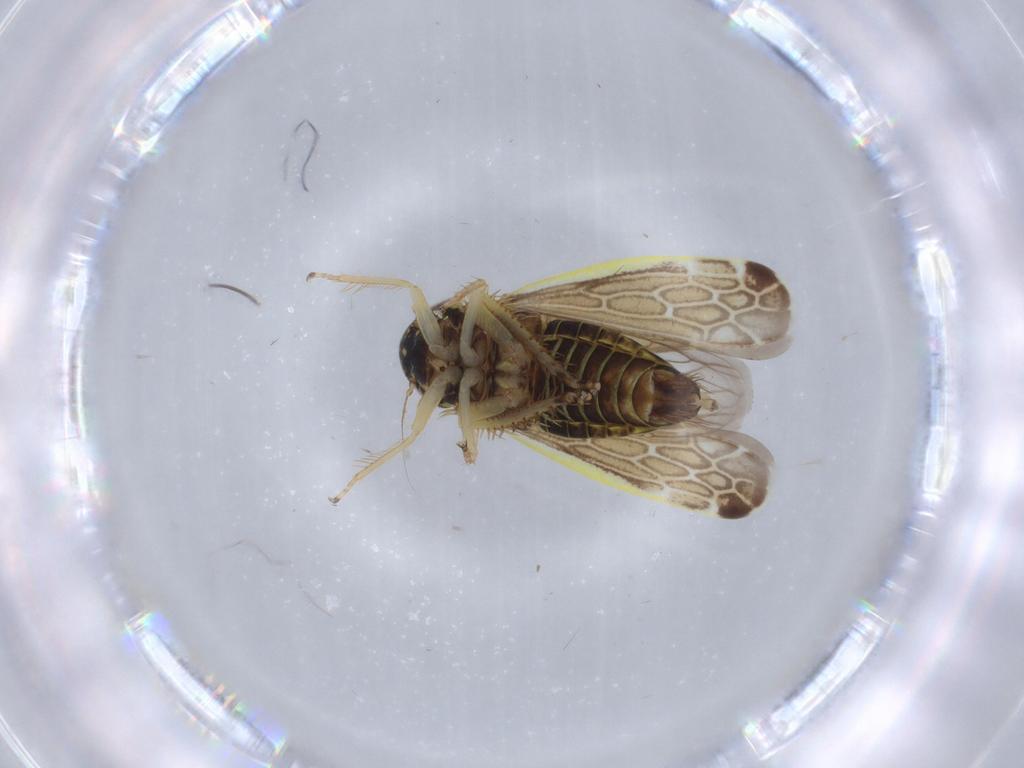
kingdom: Animalia
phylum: Arthropoda
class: Insecta
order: Hemiptera
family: Cicadellidae
